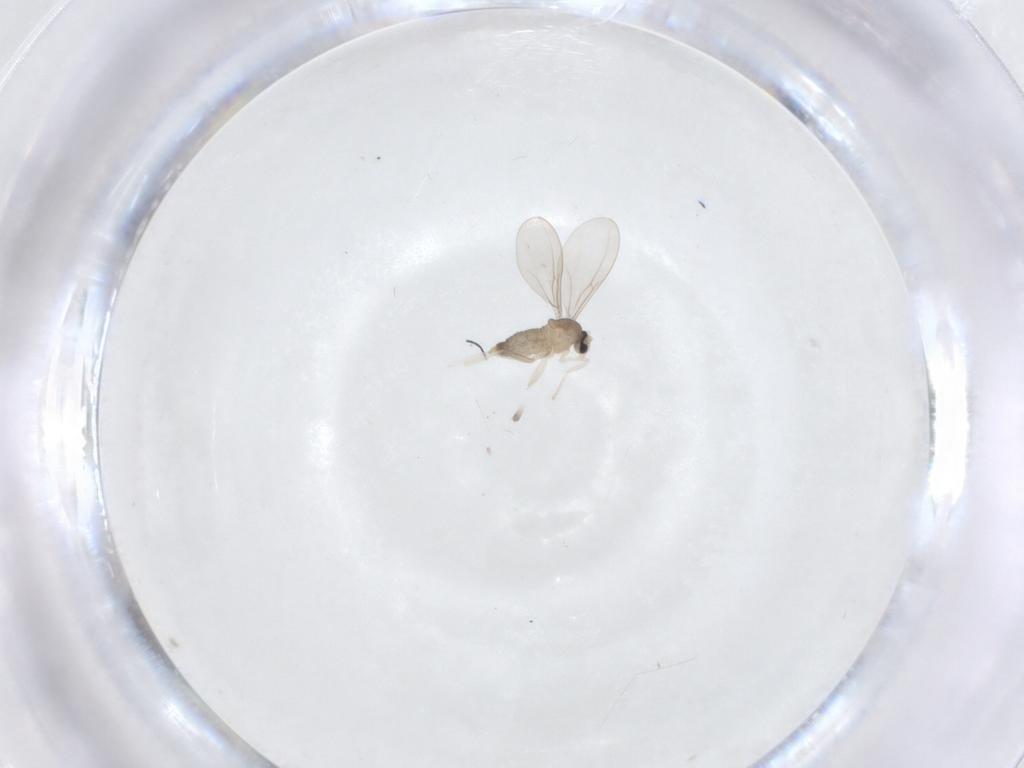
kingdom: Animalia
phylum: Arthropoda
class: Insecta
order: Diptera
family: Cecidomyiidae
